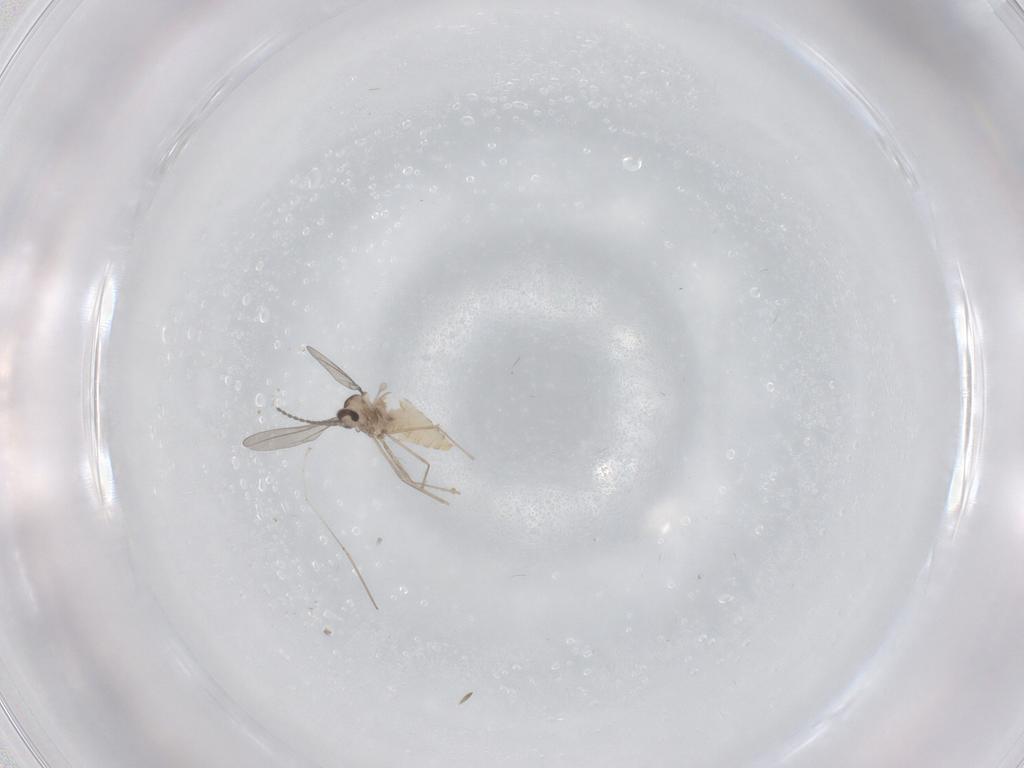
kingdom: Animalia
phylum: Arthropoda
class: Insecta
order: Diptera
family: Cecidomyiidae
